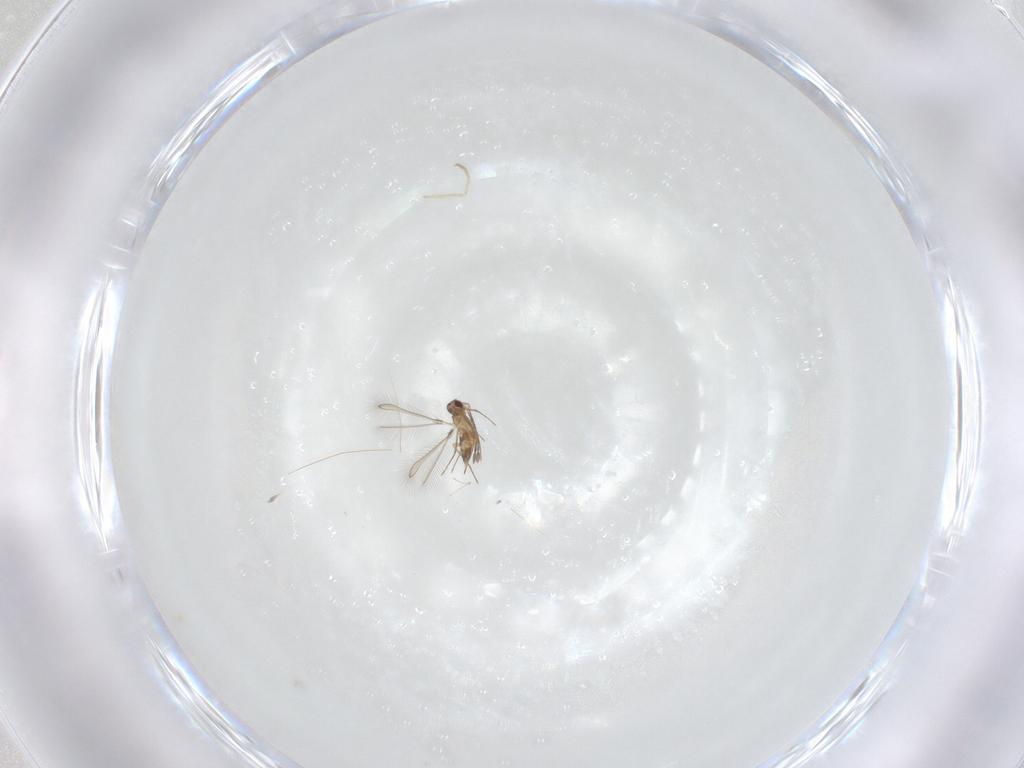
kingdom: Animalia
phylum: Arthropoda
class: Insecta
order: Diptera
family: Chironomidae
